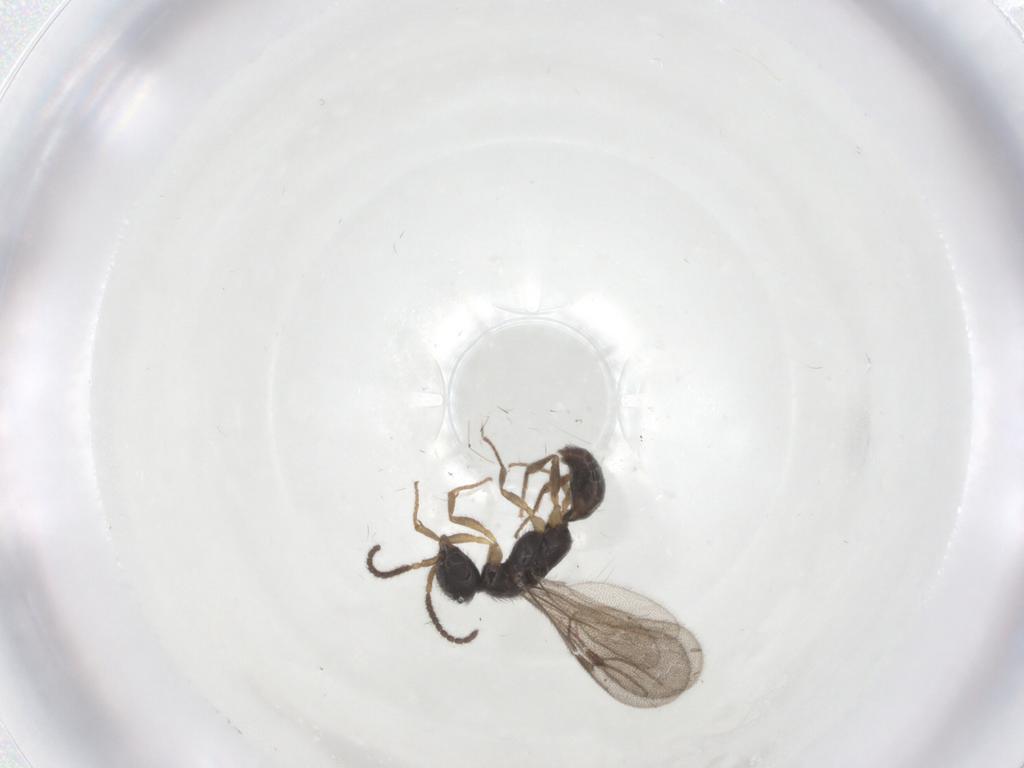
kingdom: Animalia
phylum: Arthropoda
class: Insecta
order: Hymenoptera
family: Bethylidae
